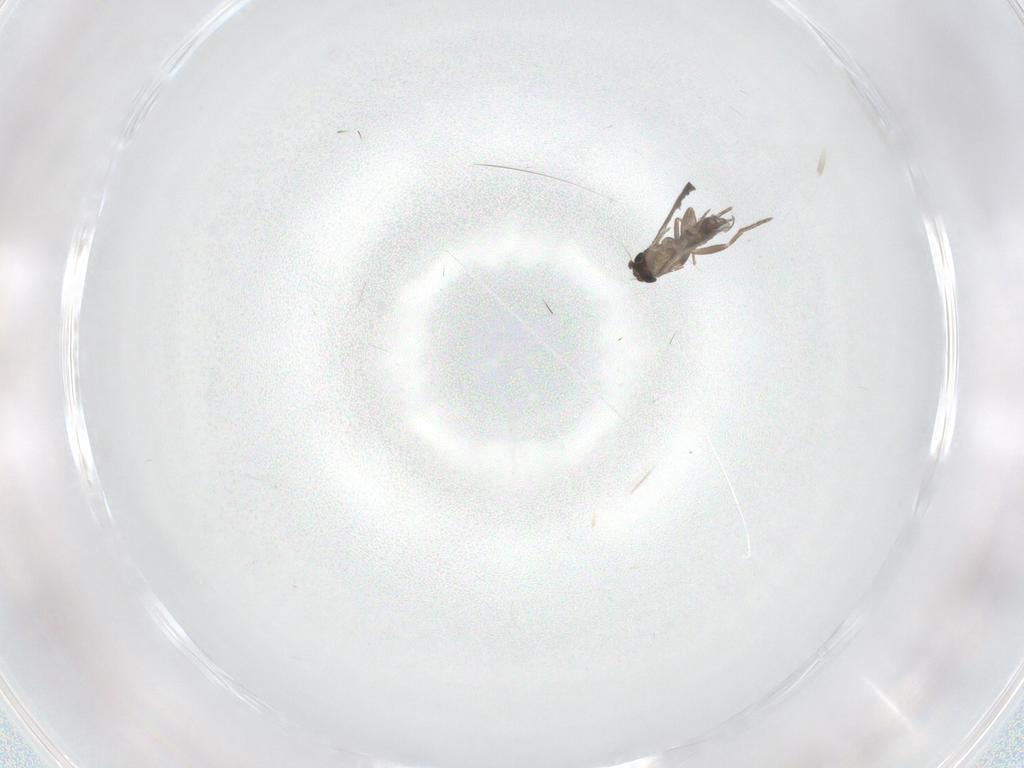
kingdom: Animalia
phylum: Arthropoda
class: Insecta
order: Diptera
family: Cecidomyiidae
